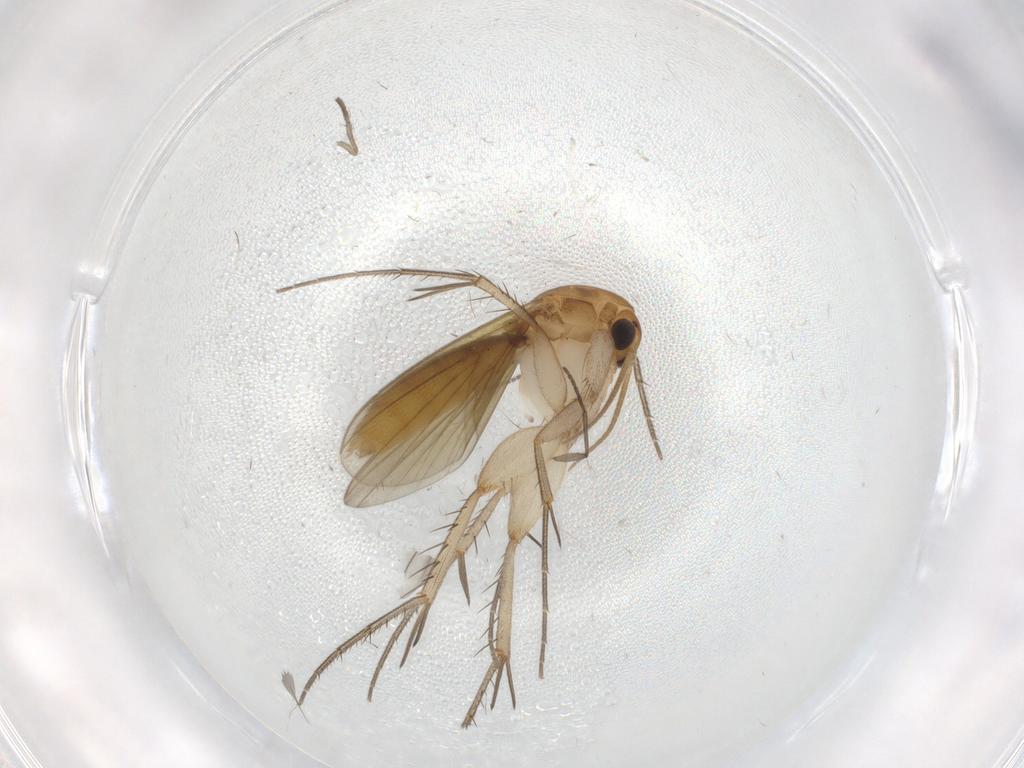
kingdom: Animalia
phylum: Arthropoda
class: Insecta
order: Diptera
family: Mycetophilidae
